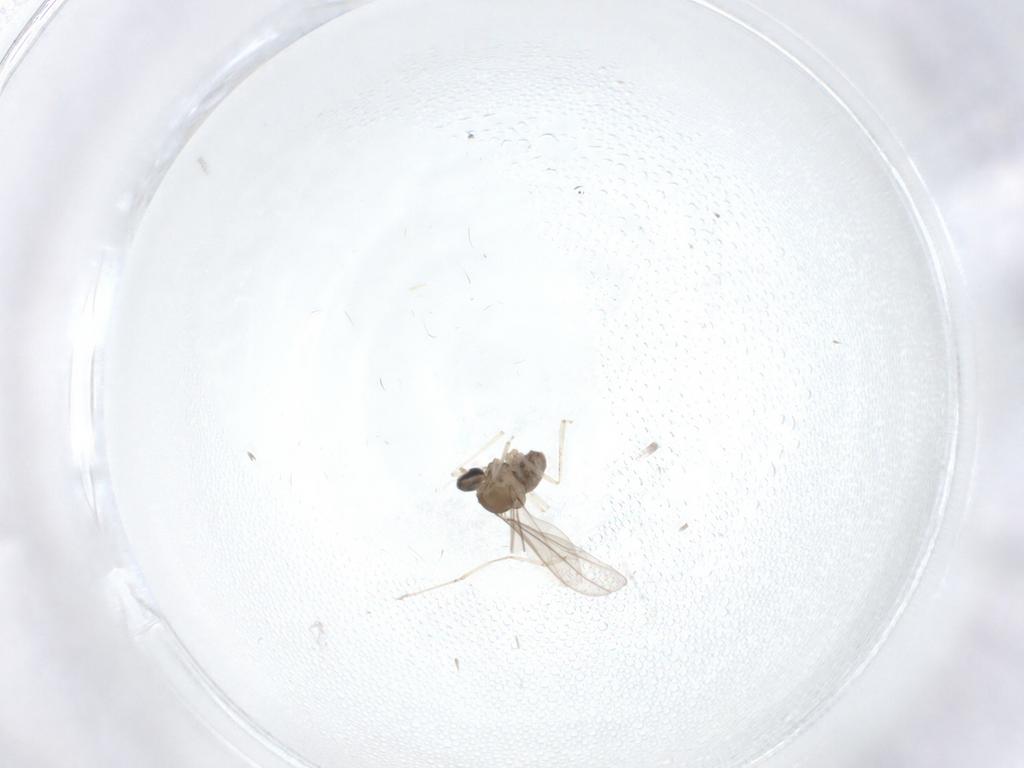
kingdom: Animalia
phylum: Arthropoda
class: Insecta
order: Diptera
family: Cecidomyiidae
